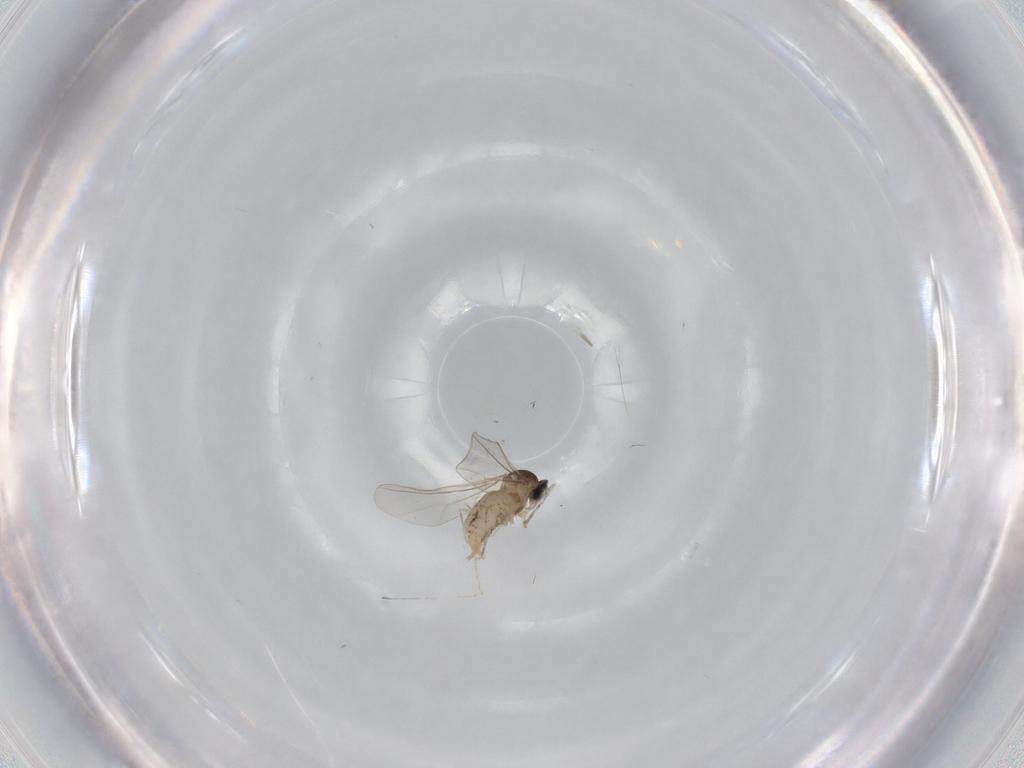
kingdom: Animalia
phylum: Arthropoda
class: Insecta
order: Diptera
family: Cecidomyiidae
